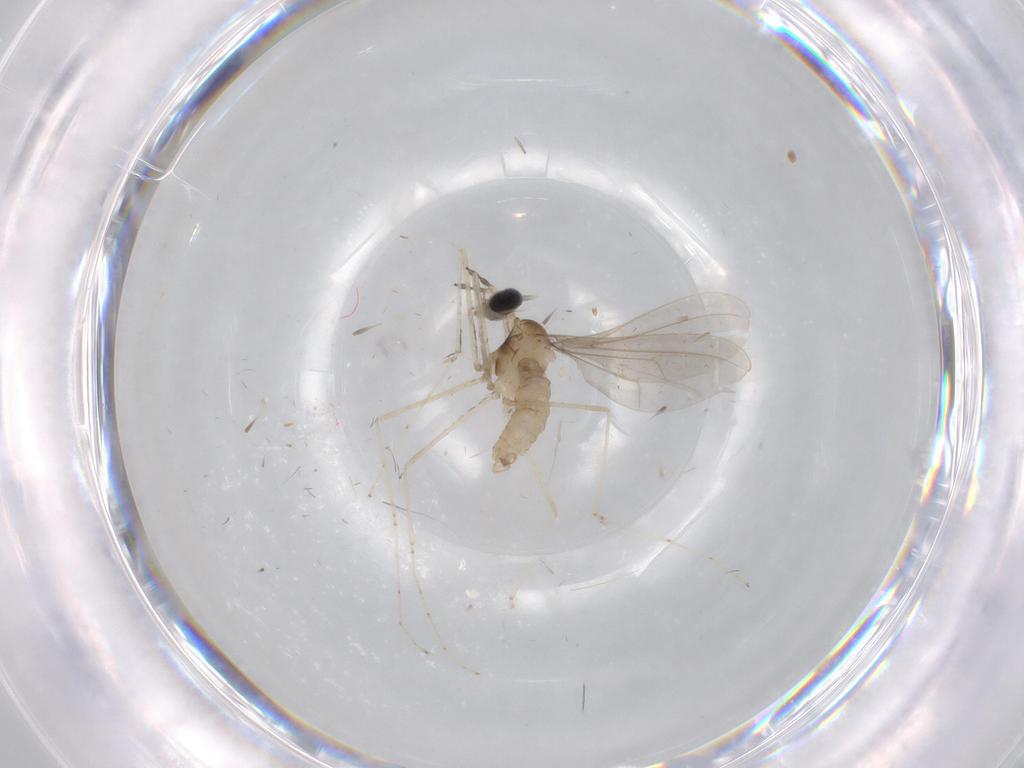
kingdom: Animalia
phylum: Arthropoda
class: Insecta
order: Diptera
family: Cecidomyiidae
